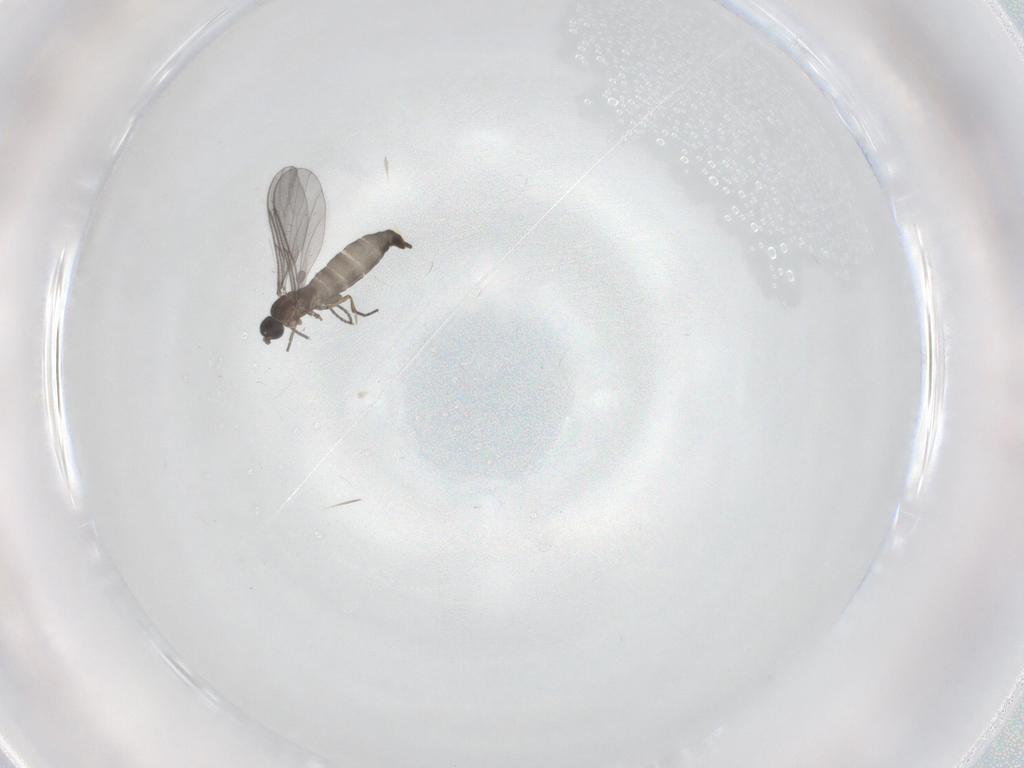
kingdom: Animalia
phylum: Arthropoda
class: Insecta
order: Diptera
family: Sciaridae
